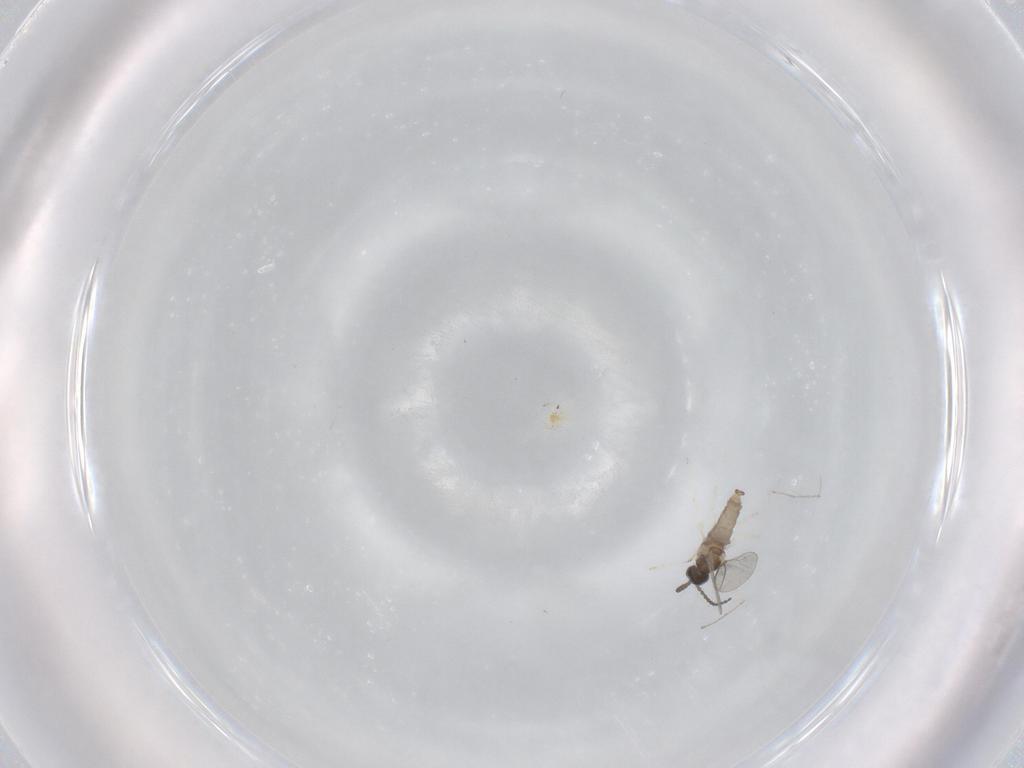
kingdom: Animalia
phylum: Arthropoda
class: Insecta
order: Diptera
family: Cecidomyiidae
